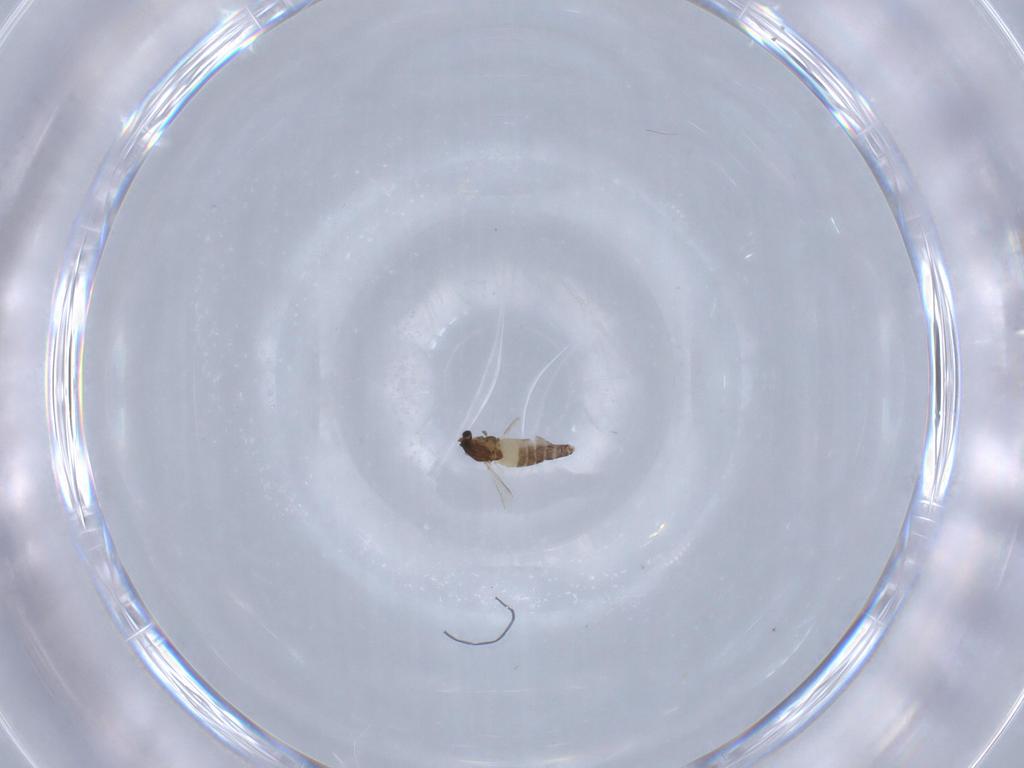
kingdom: Animalia
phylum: Arthropoda
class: Insecta
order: Diptera
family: Chironomidae
